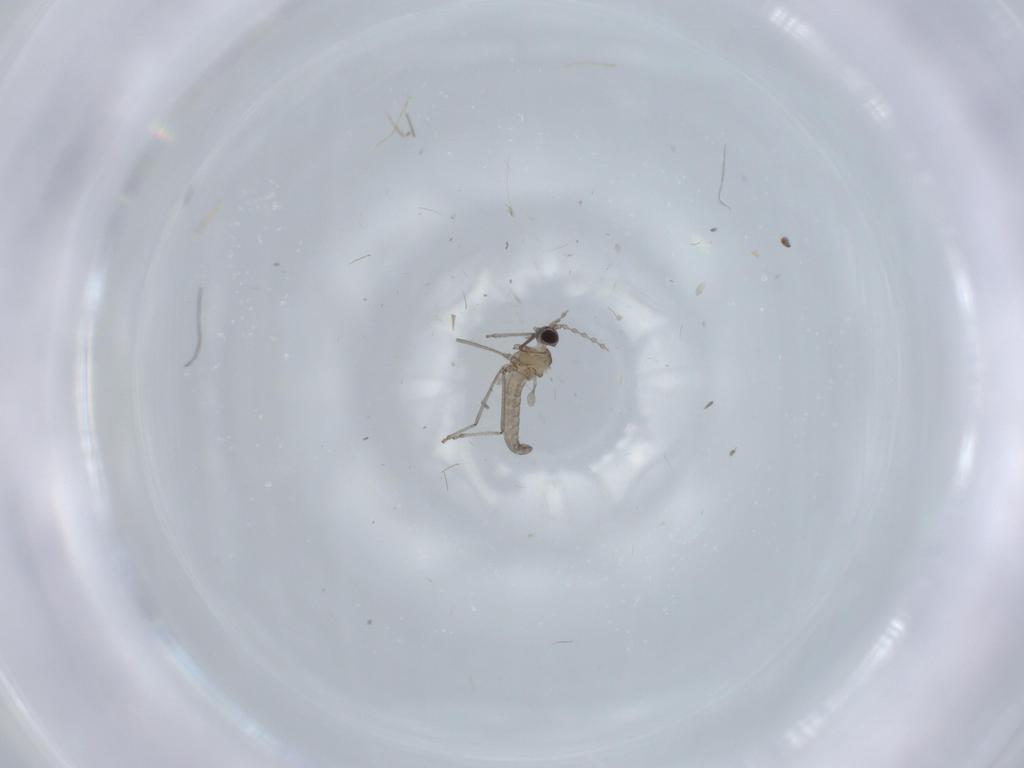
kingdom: Animalia
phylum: Arthropoda
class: Insecta
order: Diptera
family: Cecidomyiidae
